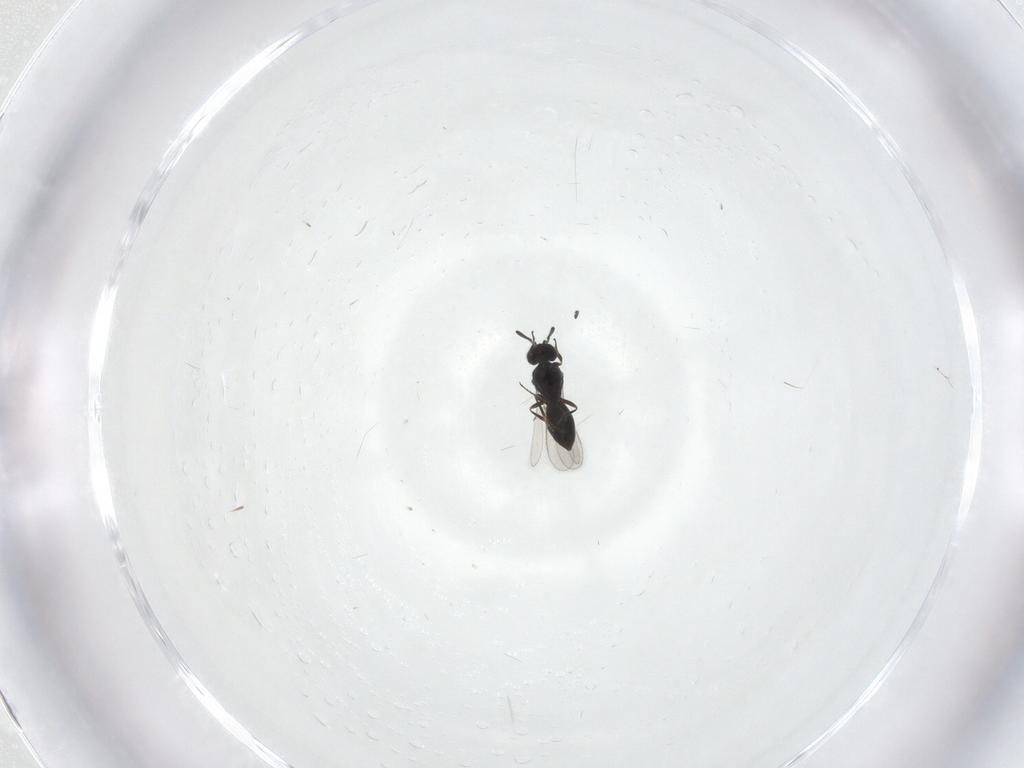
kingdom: Animalia
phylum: Arthropoda
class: Insecta
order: Hymenoptera
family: Scelionidae
